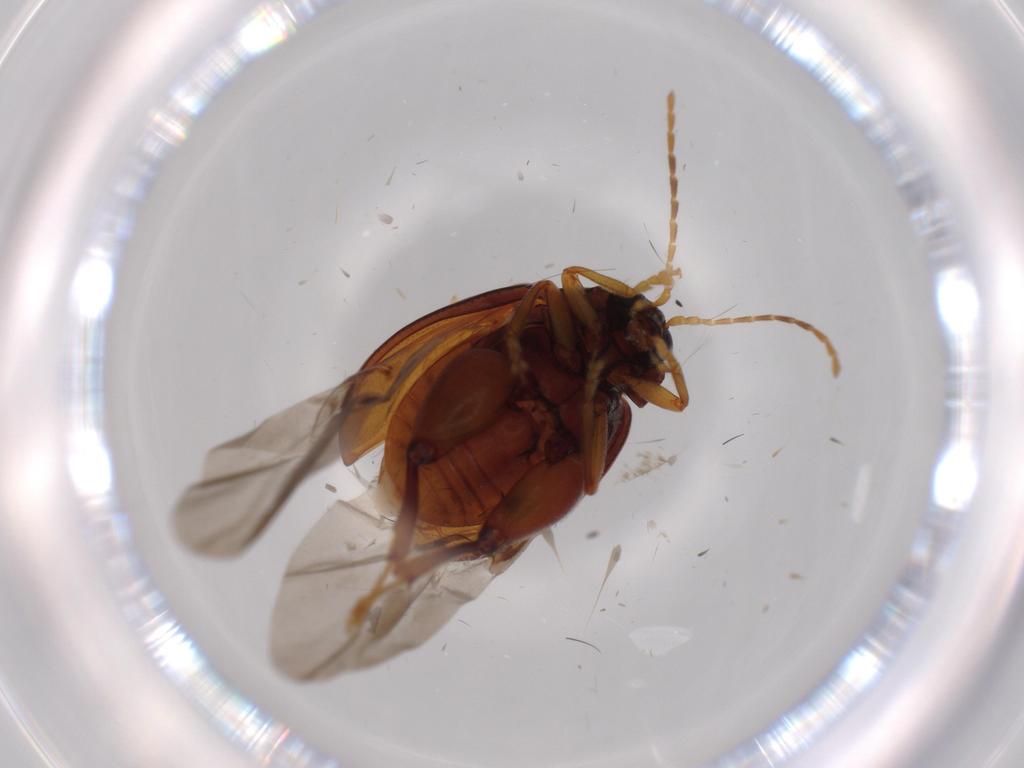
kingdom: Animalia
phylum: Arthropoda
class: Insecta
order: Coleoptera
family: Chrysomelidae
